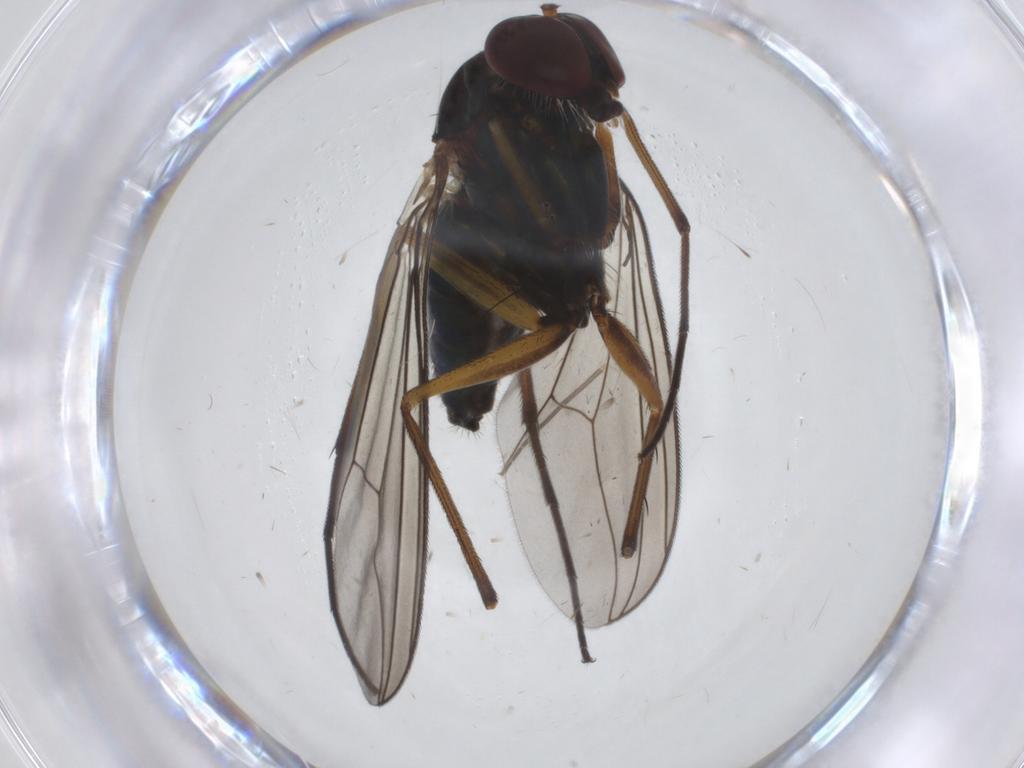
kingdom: Animalia
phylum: Arthropoda
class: Insecta
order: Diptera
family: Mycetophilidae
